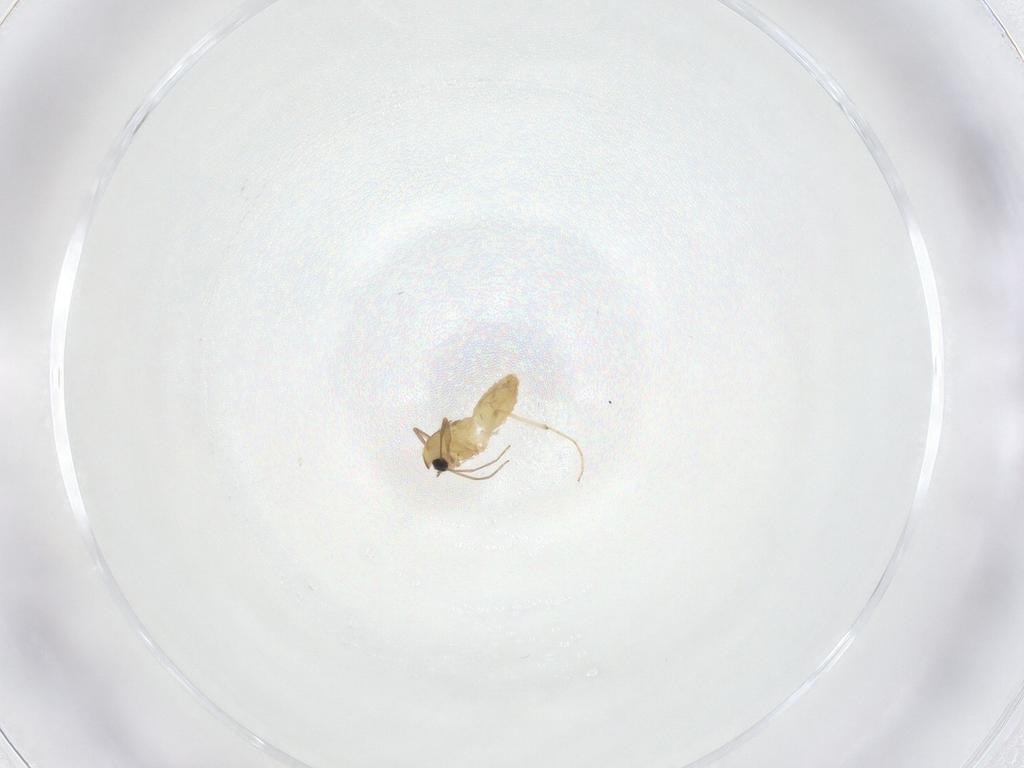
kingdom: Animalia
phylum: Arthropoda
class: Insecta
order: Diptera
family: Chironomidae
